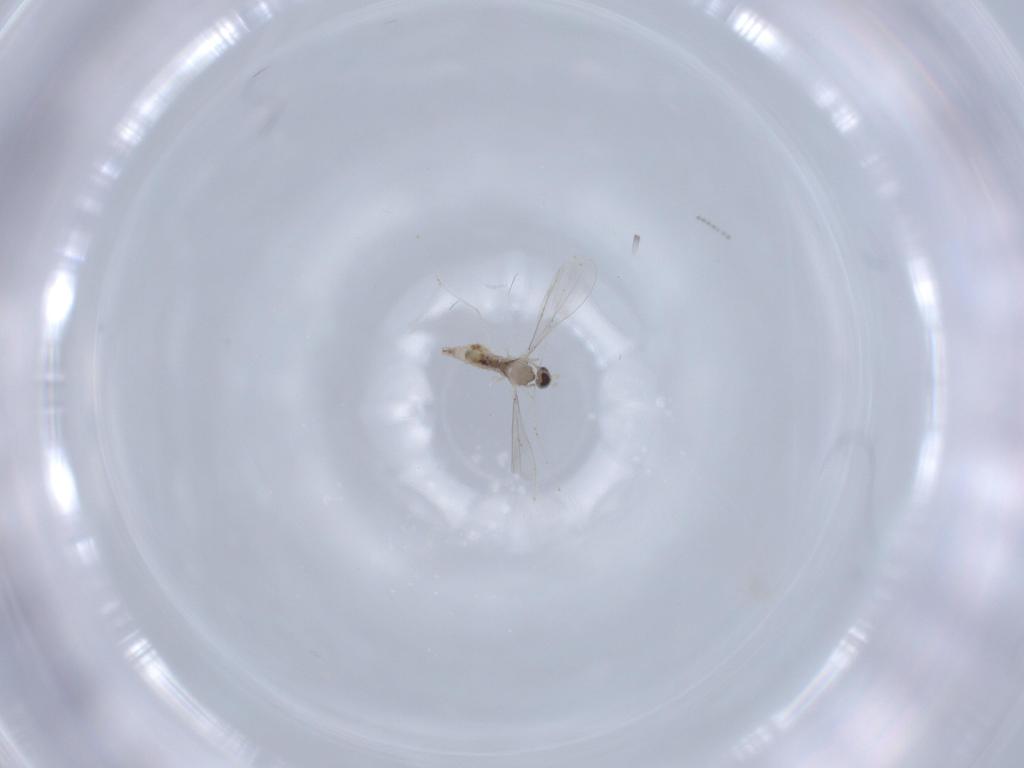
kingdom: Animalia
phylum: Arthropoda
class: Insecta
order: Diptera
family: Cecidomyiidae
